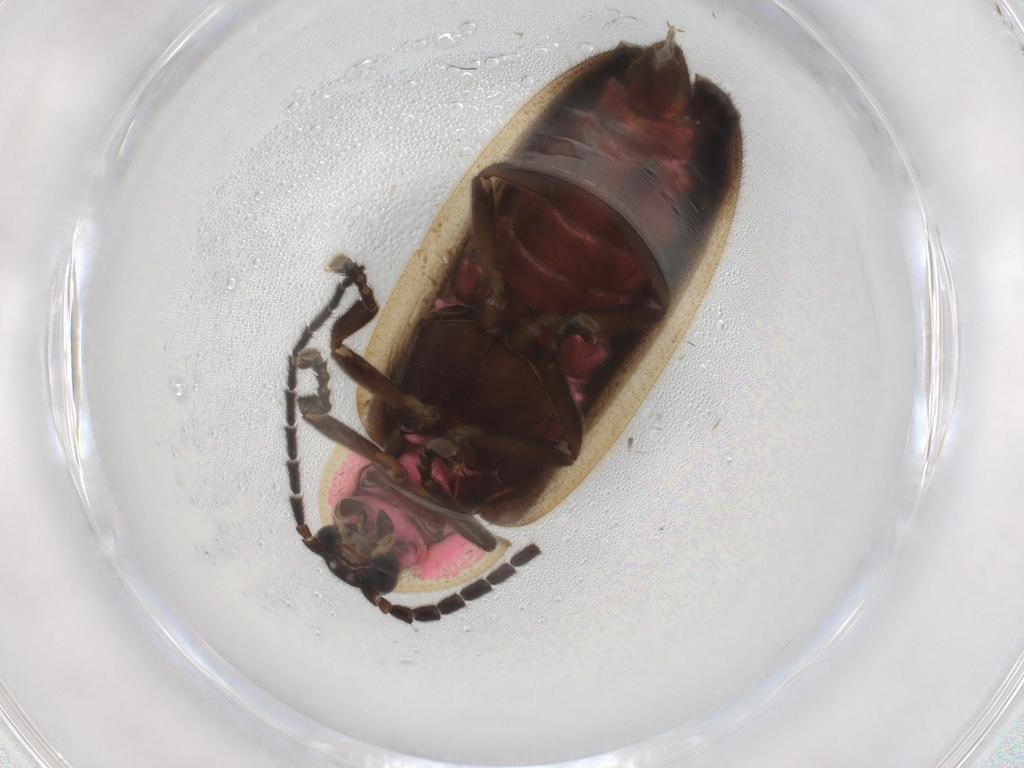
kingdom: Animalia
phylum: Arthropoda
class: Insecta
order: Coleoptera
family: Lampyridae
